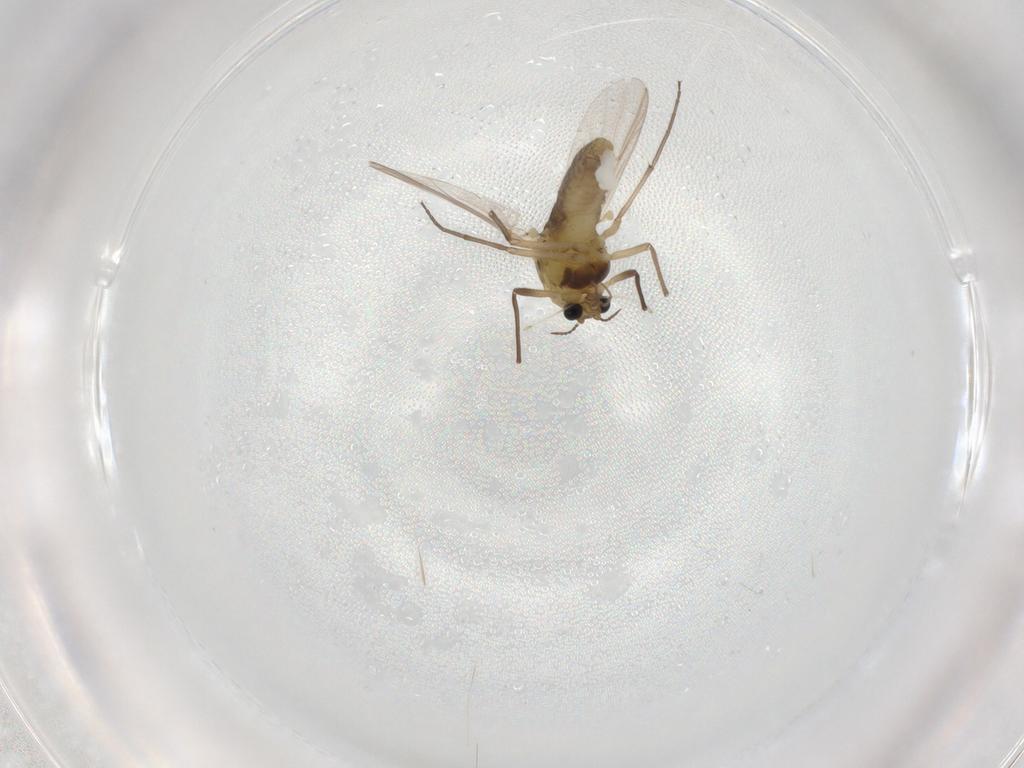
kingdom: Animalia
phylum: Arthropoda
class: Insecta
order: Diptera
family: Chironomidae
